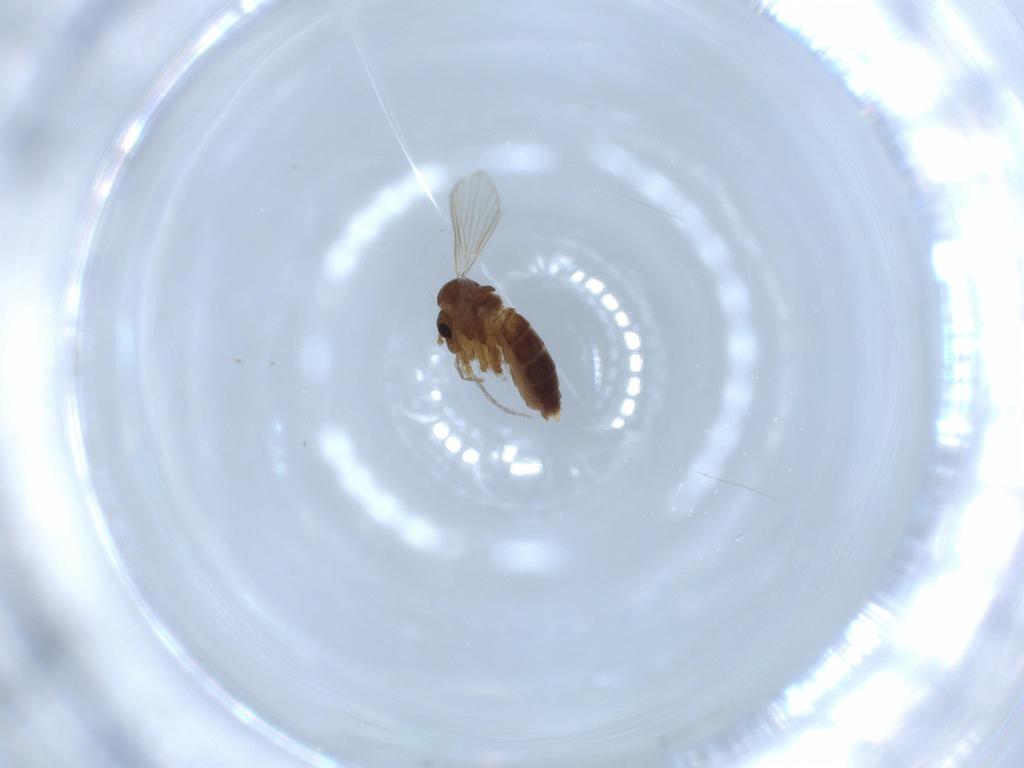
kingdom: Animalia
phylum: Arthropoda
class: Insecta
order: Diptera
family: Psychodidae
